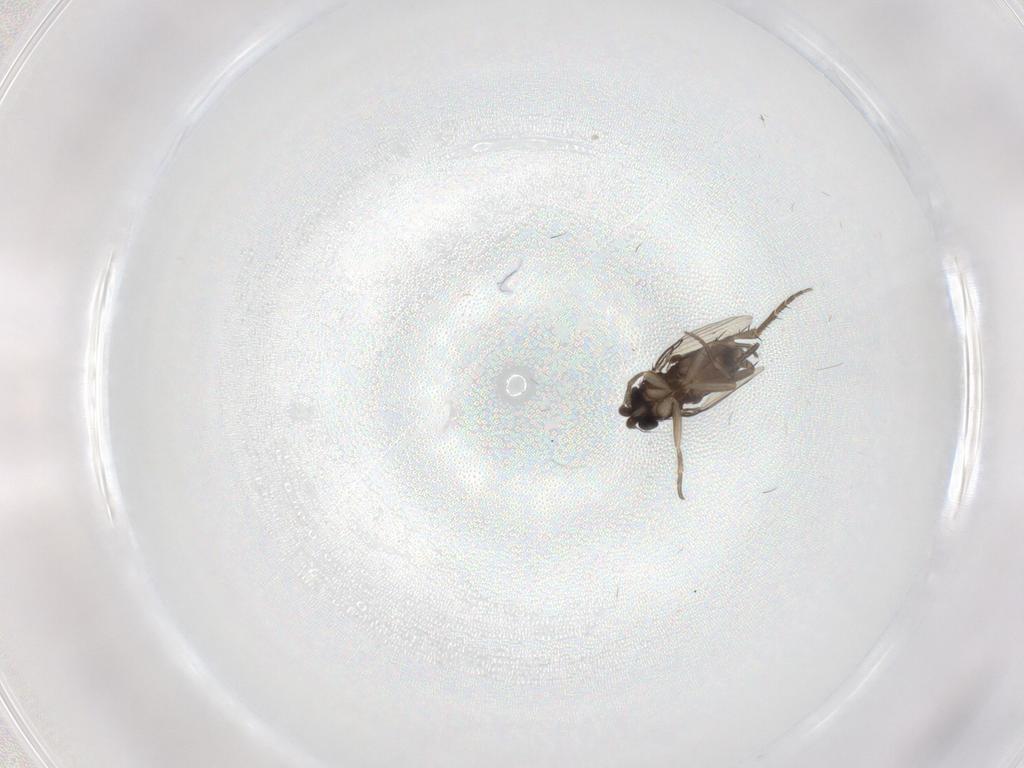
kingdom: Animalia
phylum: Arthropoda
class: Insecta
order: Diptera
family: Phoridae
